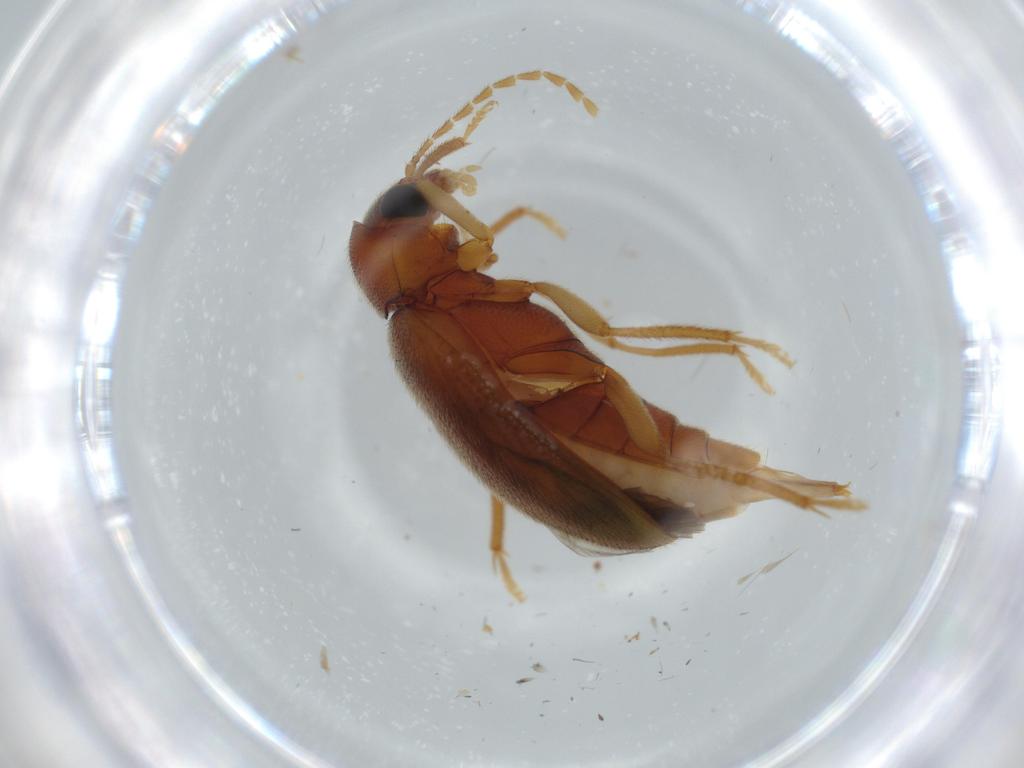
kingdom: Animalia
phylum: Arthropoda
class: Insecta
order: Coleoptera
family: Ptilodactylidae
